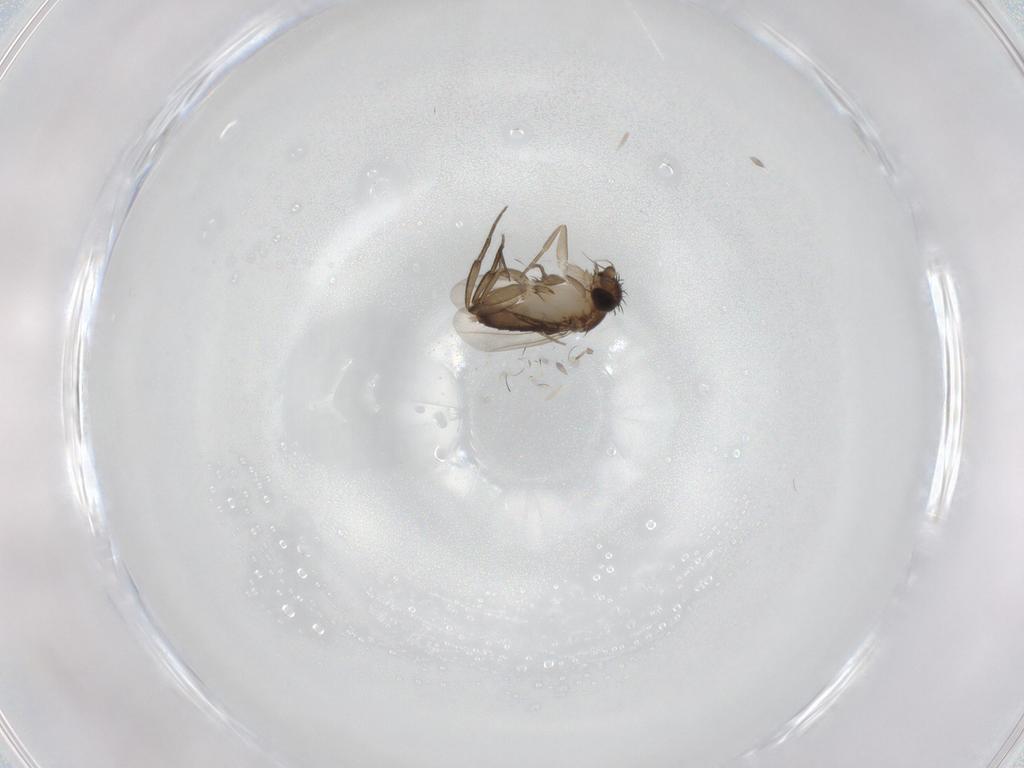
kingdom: Animalia
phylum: Arthropoda
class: Insecta
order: Diptera
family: Phoridae
